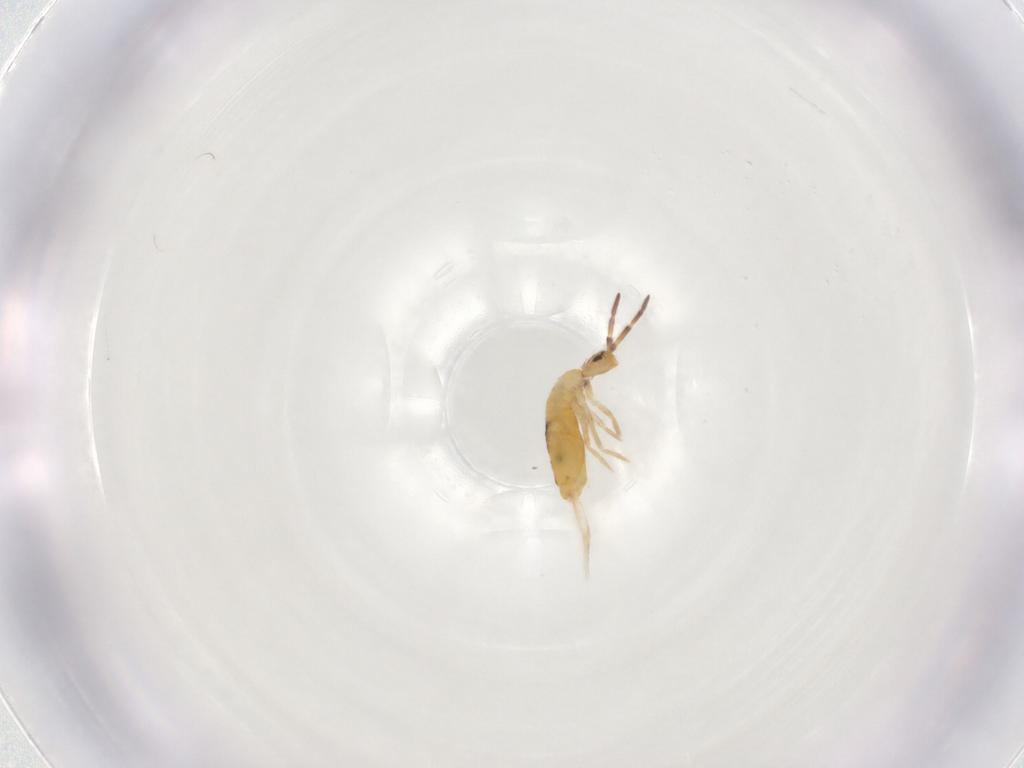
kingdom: Animalia
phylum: Arthropoda
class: Collembola
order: Entomobryomorpha
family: Entomobryidae
